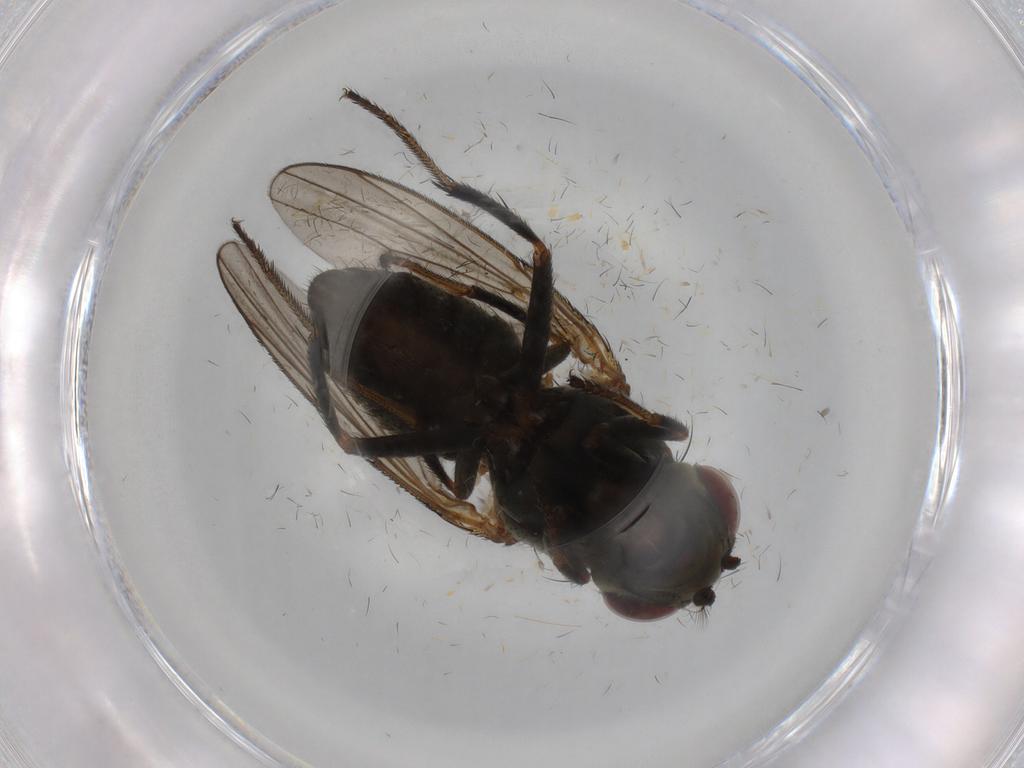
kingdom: Animalia
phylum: Arthropoda
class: Insecta
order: Diptera
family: Ephydridae
